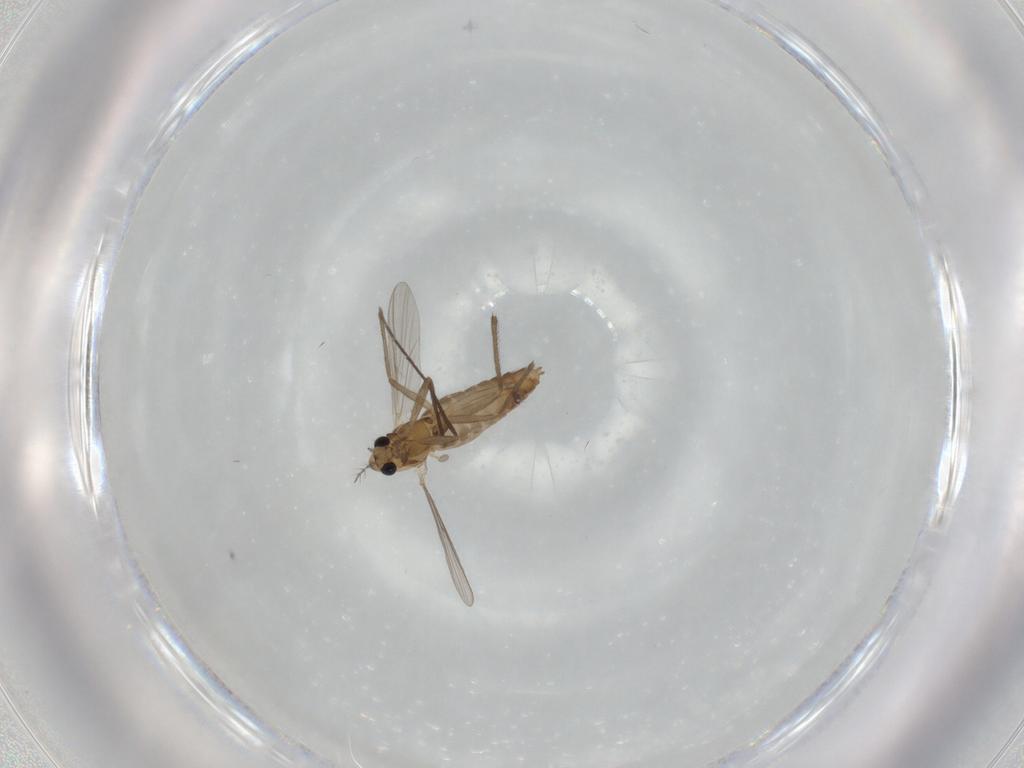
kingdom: Animalia
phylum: Arthropoda
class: Insecta
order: Diptera
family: Chironomidae
